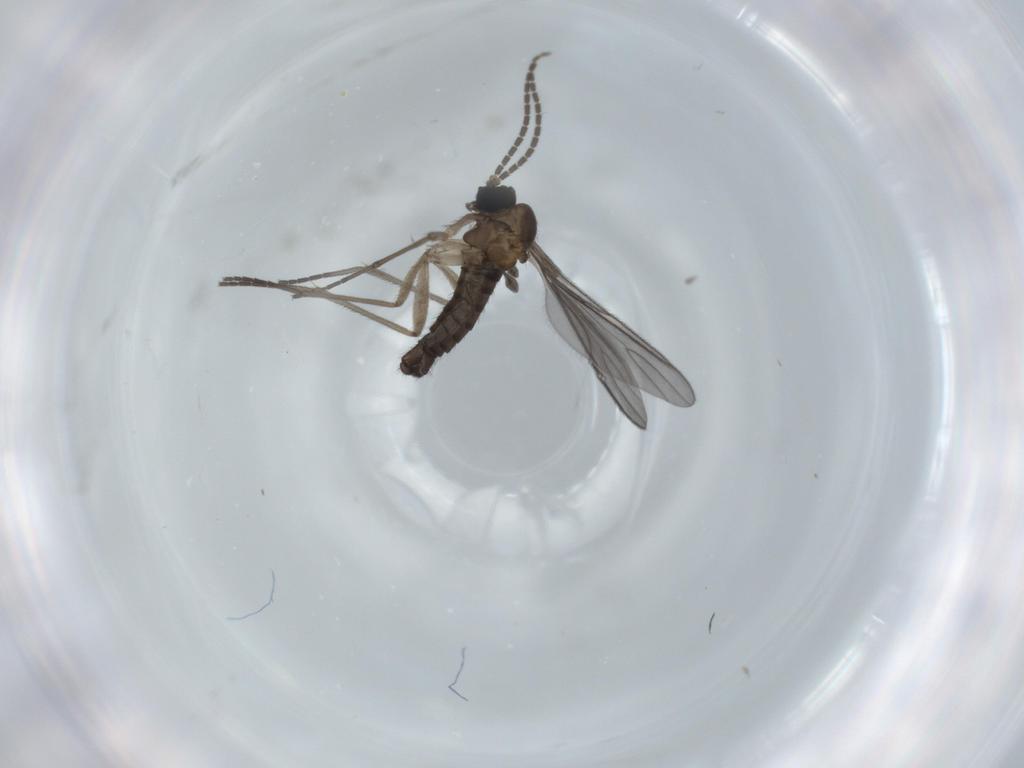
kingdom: Animalia
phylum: Arthropoda
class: Insecta
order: Diptera
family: Sciaridae
